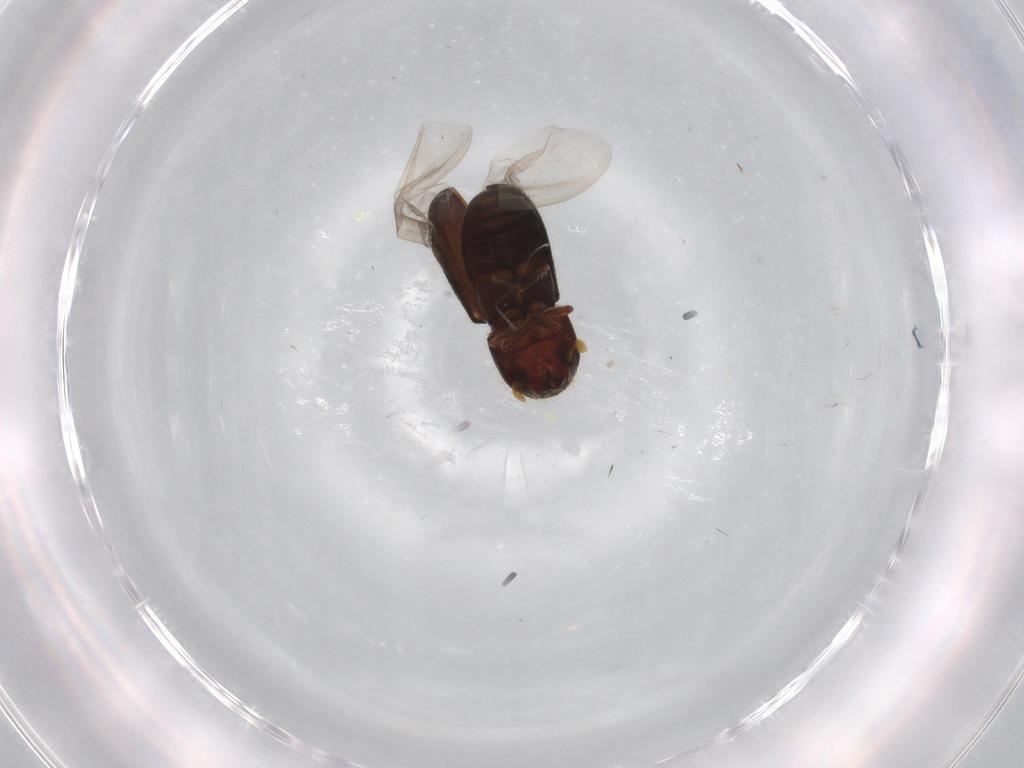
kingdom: Animalia
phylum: Arthropoda
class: Insecta
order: Coleoptera
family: Curculionidae
